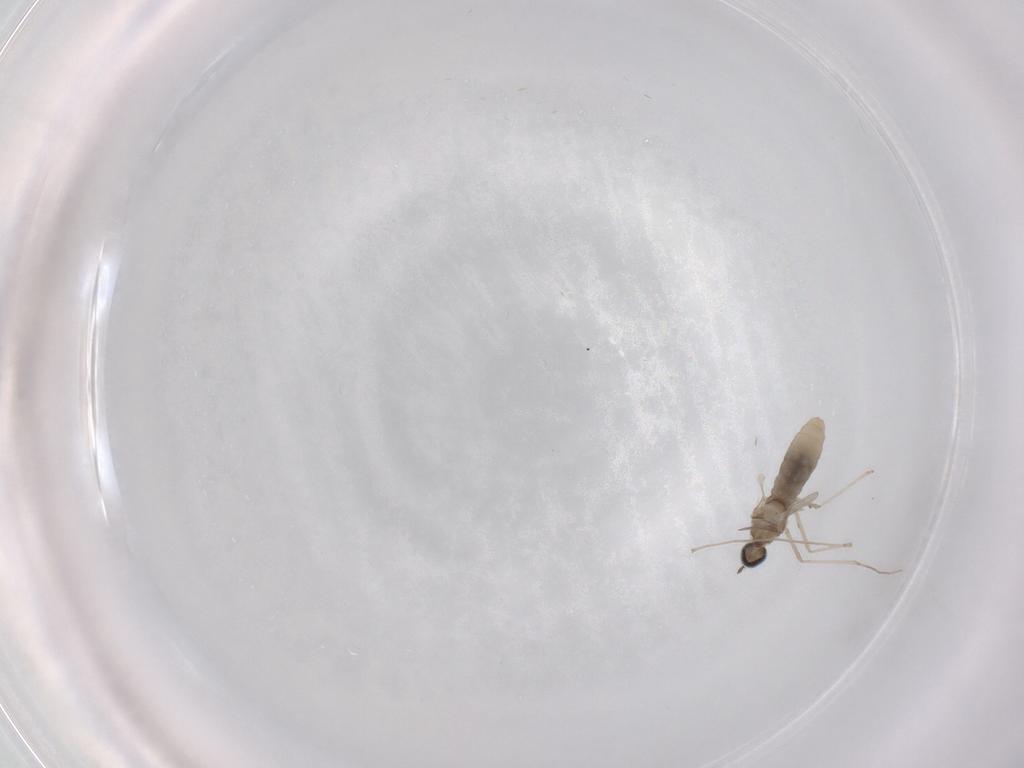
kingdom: Animalia
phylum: Arthropoda
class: Insecta
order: Diptera
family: Cecidomyiidae
